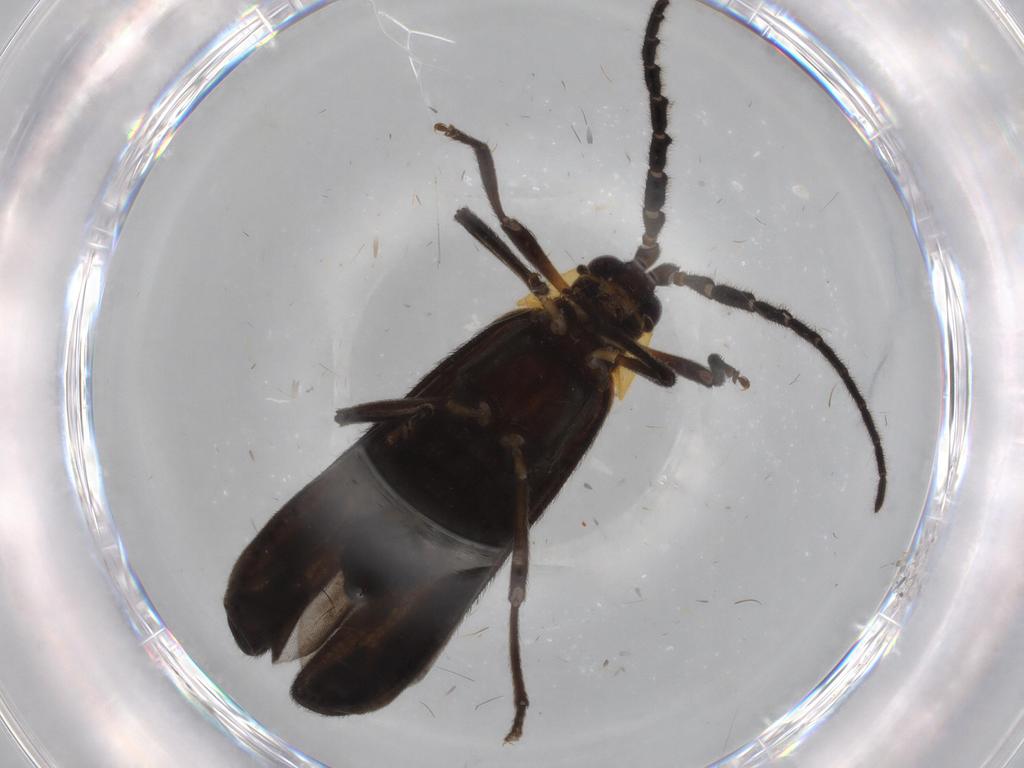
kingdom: Animalia
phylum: Arthropoda
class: Insecta
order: Coleoptera
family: Lycidae
